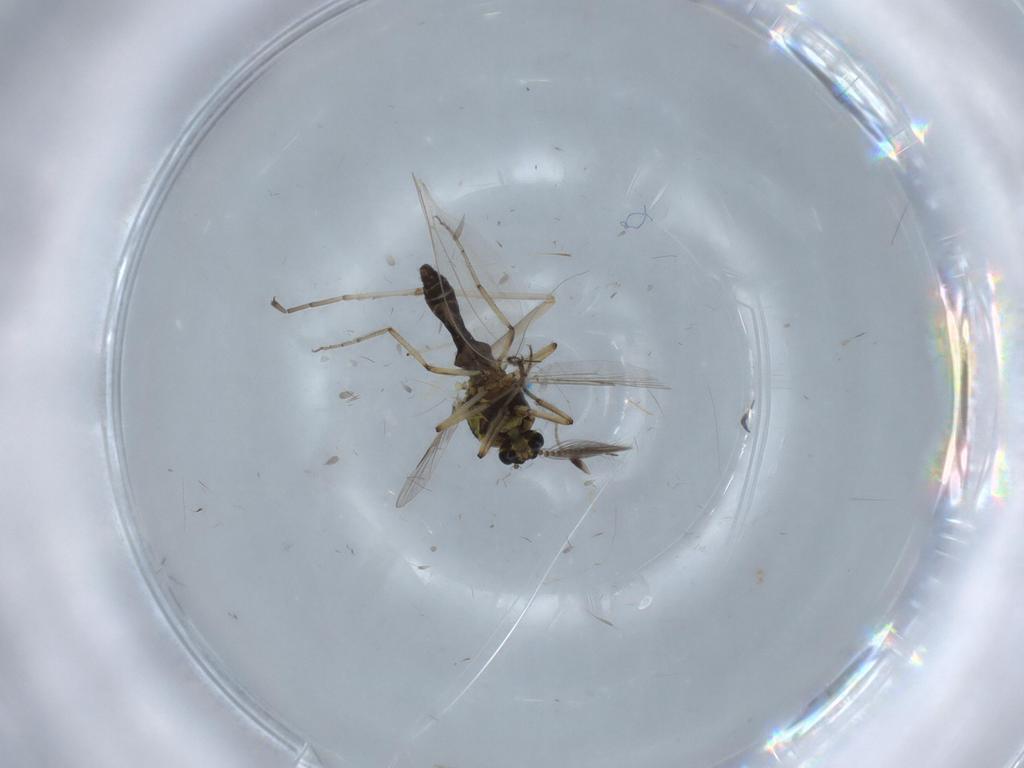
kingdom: Animalia
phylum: Arthropoda
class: Insecta
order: Diptera
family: Ceratopogonidae
